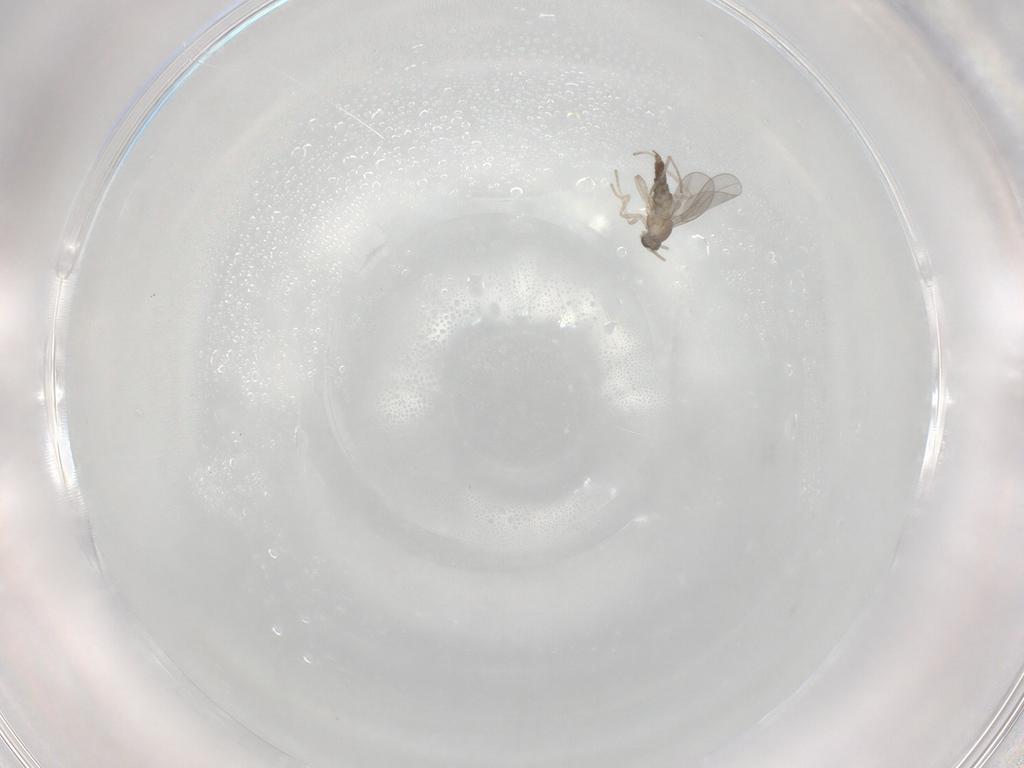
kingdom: Animalia
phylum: Arthropoda
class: Insecta
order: Diptera
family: Cecidomyiidae
